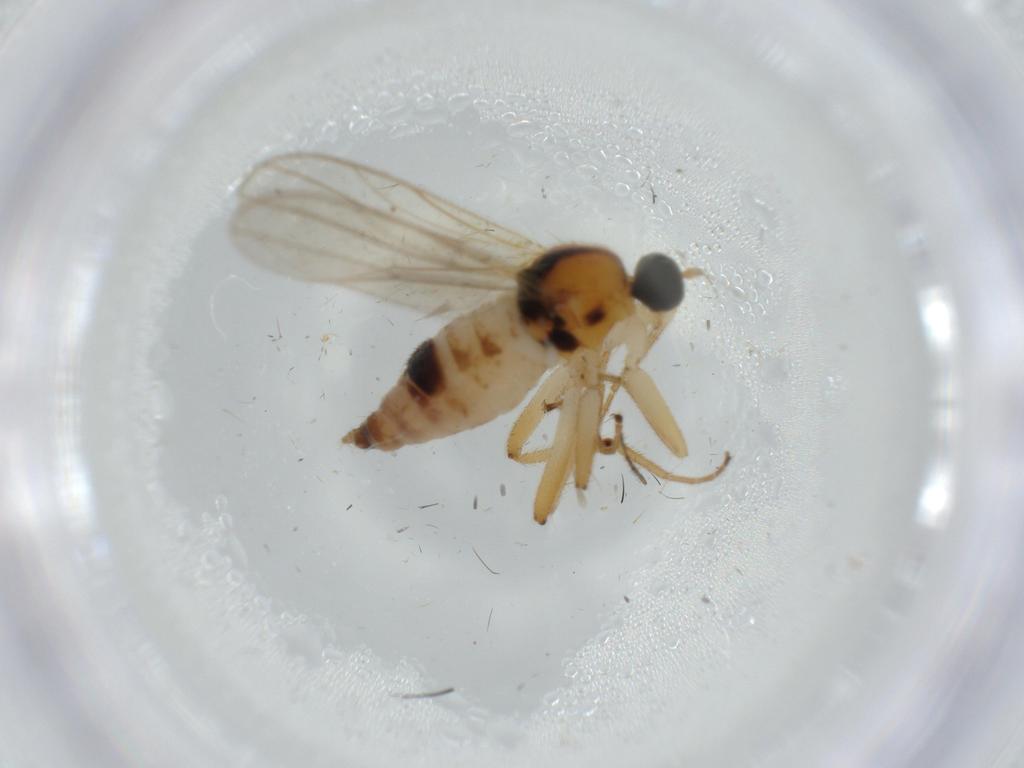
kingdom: Animalia
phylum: Arthropoda
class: Insecta
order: Diptera
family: Hybotidae
